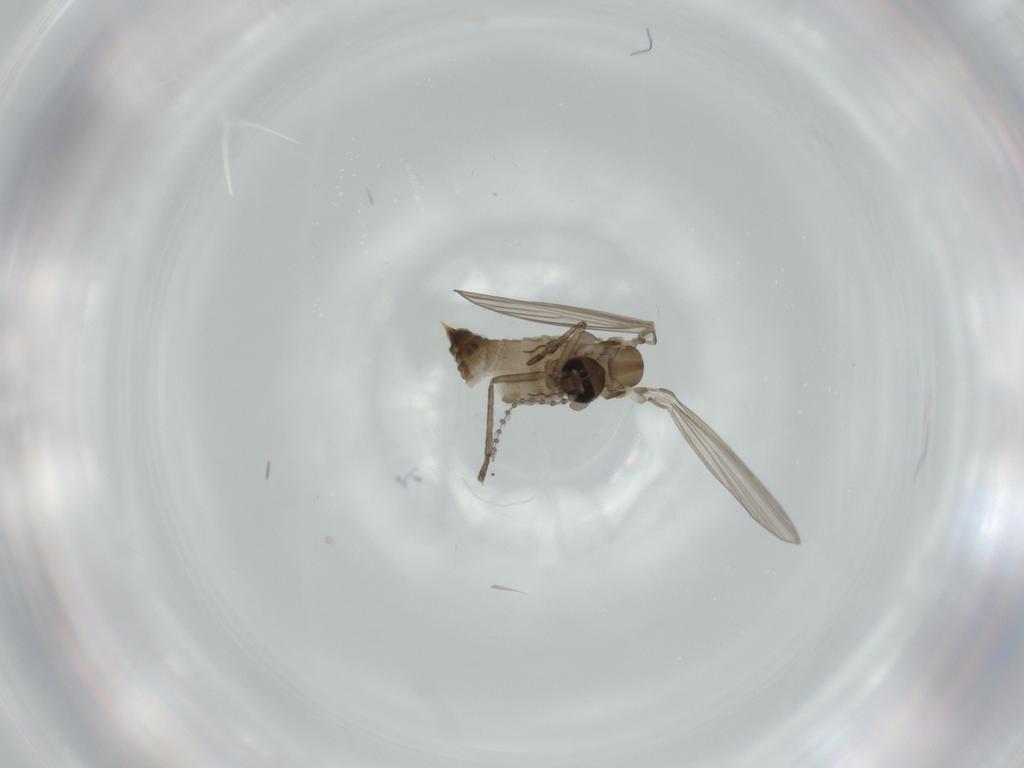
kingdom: Animalia
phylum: Arthropoda
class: Insecta
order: Diptera
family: Psychodidae
